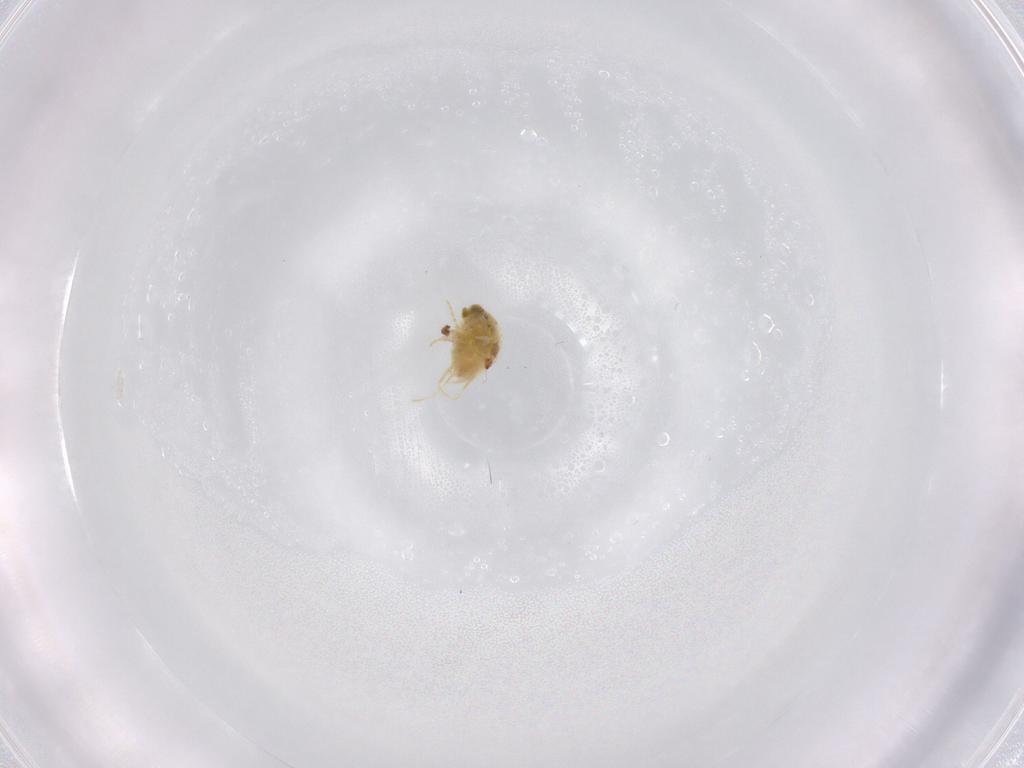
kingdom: Animalia
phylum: Arthropoda
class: Arachnida
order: Trombidiformes
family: Tetranychidae
